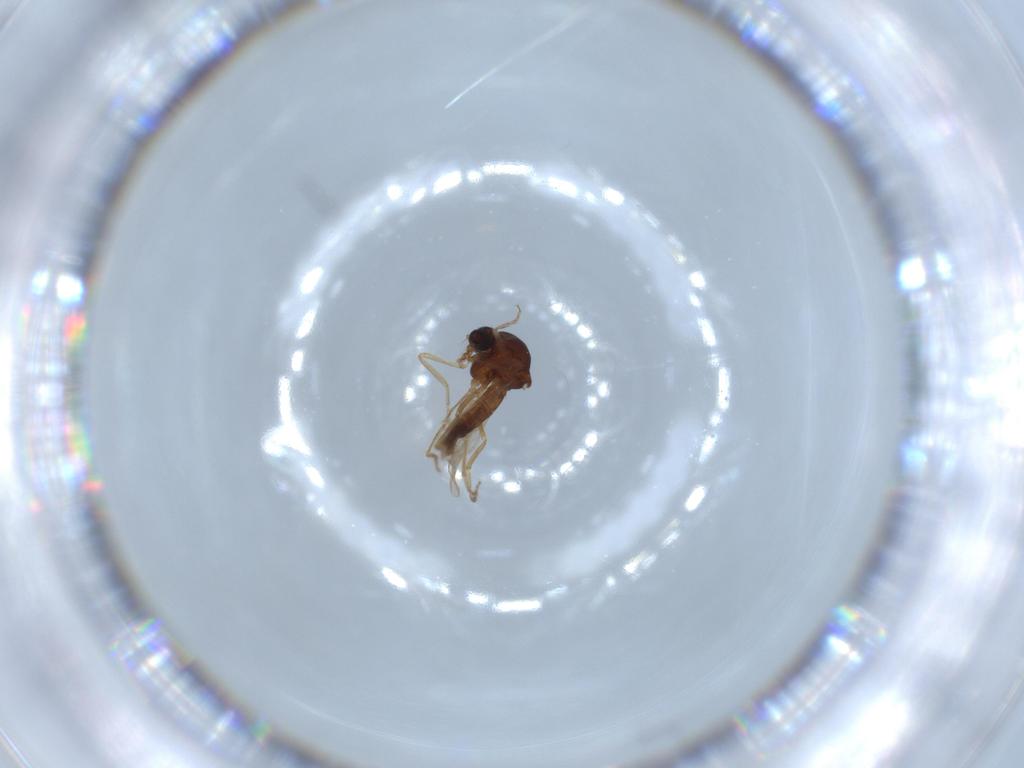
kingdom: Animalia
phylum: Arthropoda
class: Insecta
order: Diptera
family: Ceratopogonidae
